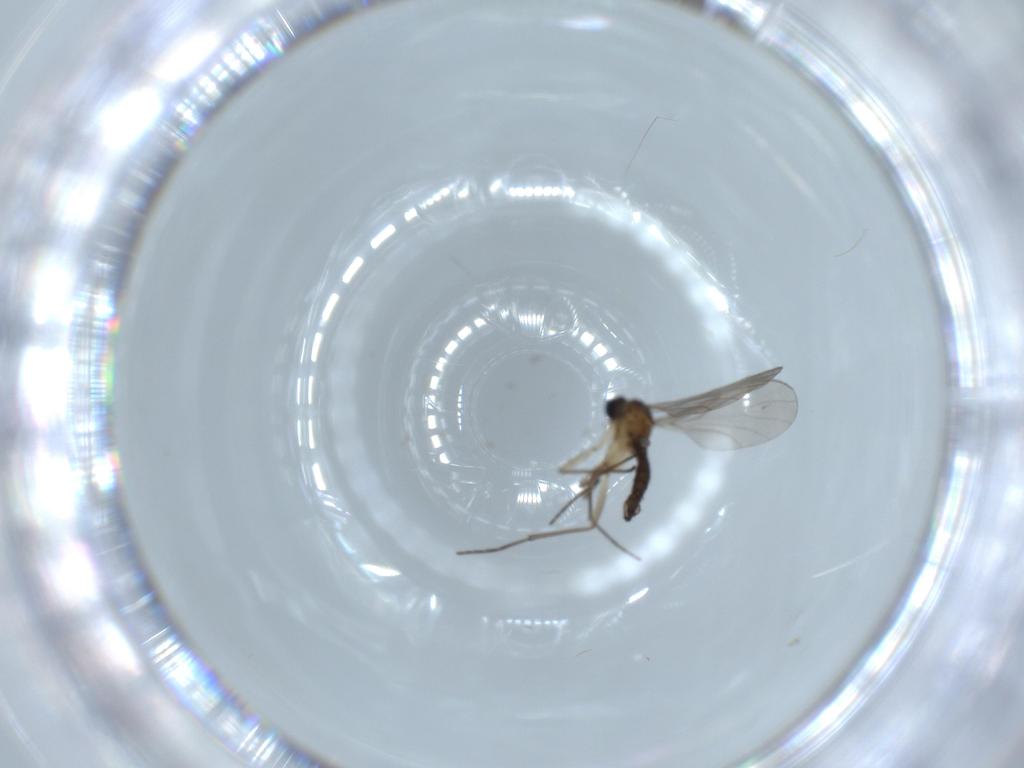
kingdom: Animalia
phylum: Arthropoda
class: Insecta
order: Diptera
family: Sciaridae
